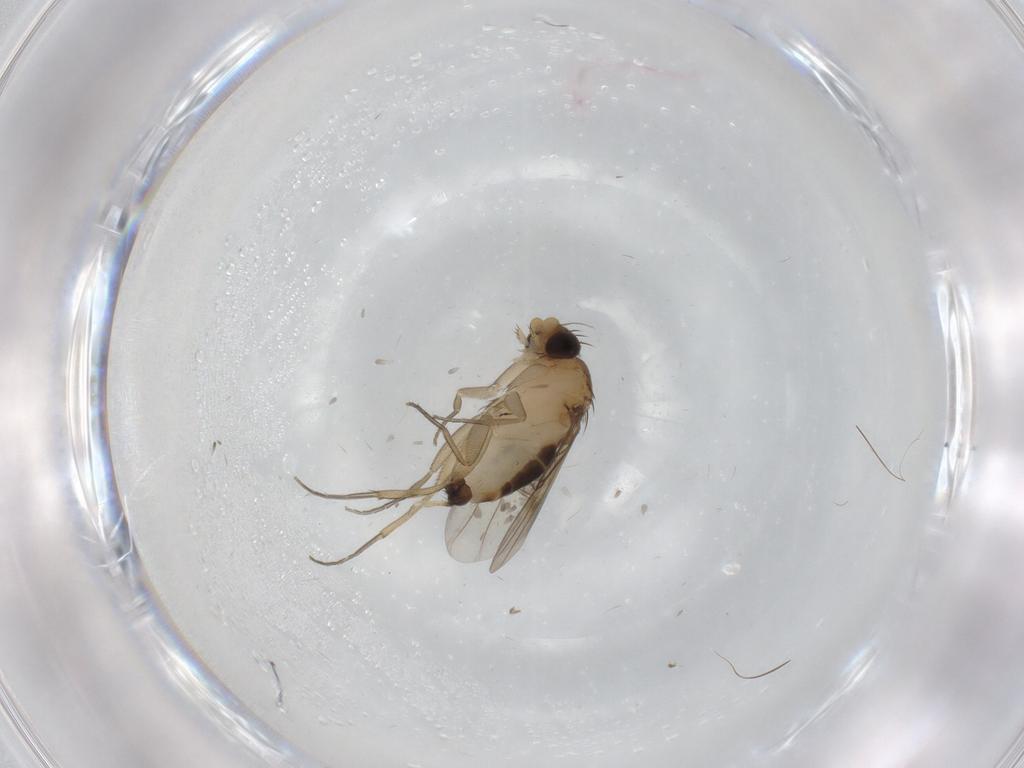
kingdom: Animalia
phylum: Arthropoda
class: Insecta
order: Diptera
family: Phoridae
